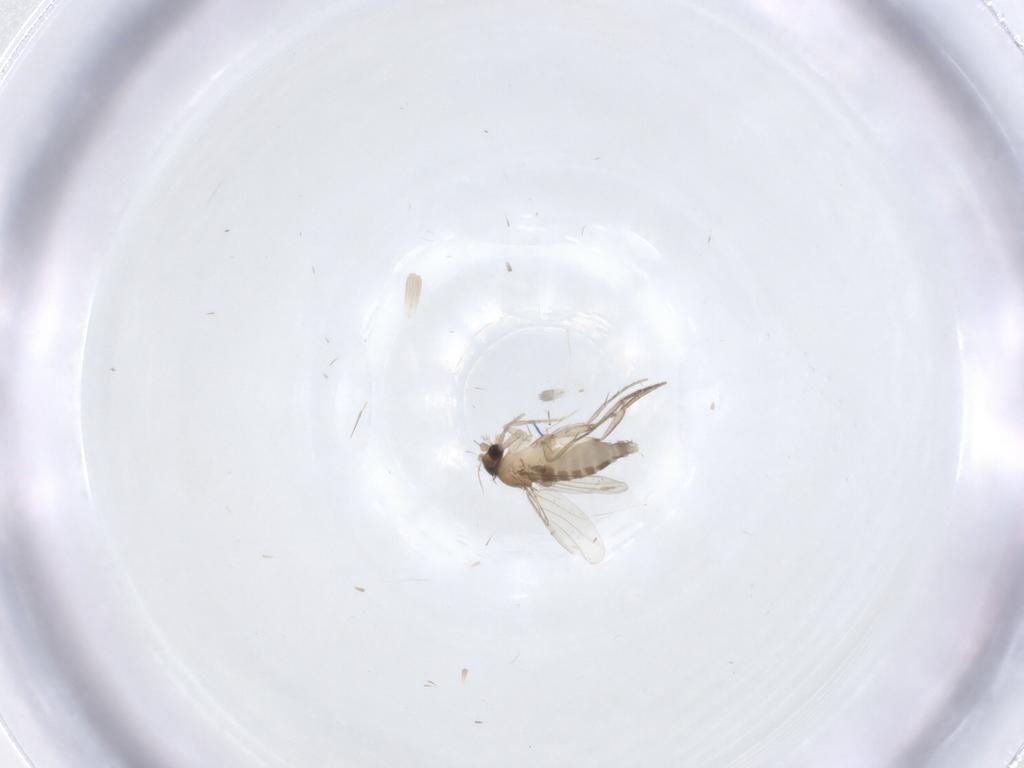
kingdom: Animalia
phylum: Arthropoda
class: Insecta
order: Diptera
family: Phoridae
